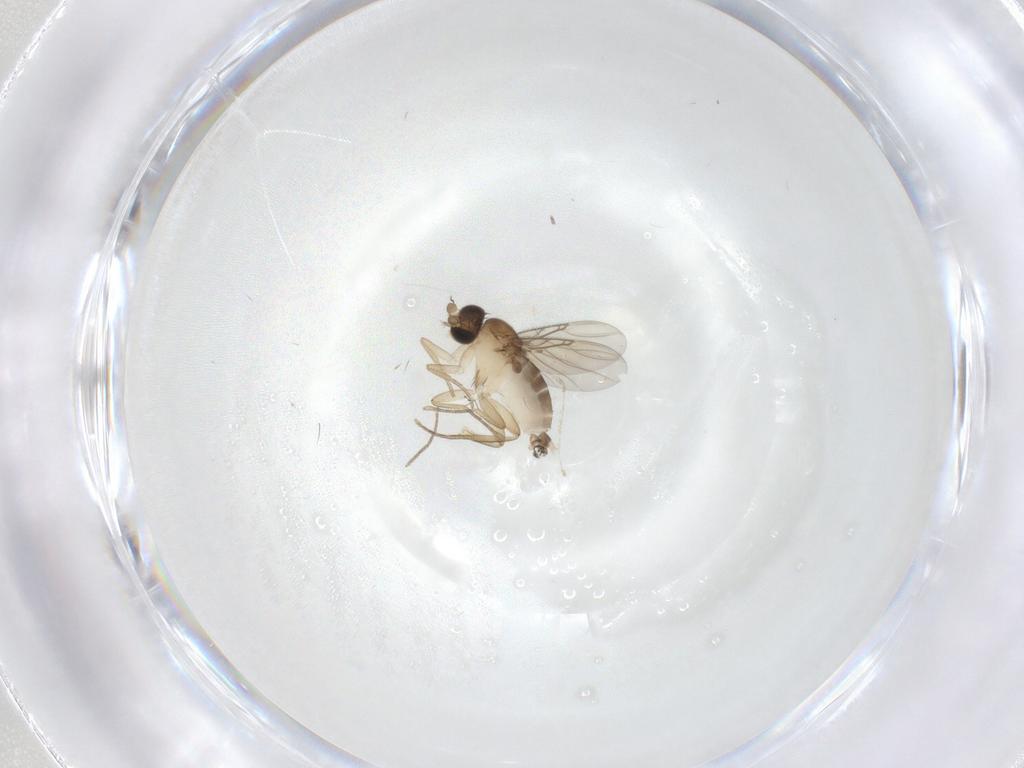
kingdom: Animalia
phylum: Arthropoda
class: Insecta
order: Diptera
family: Phoridae
